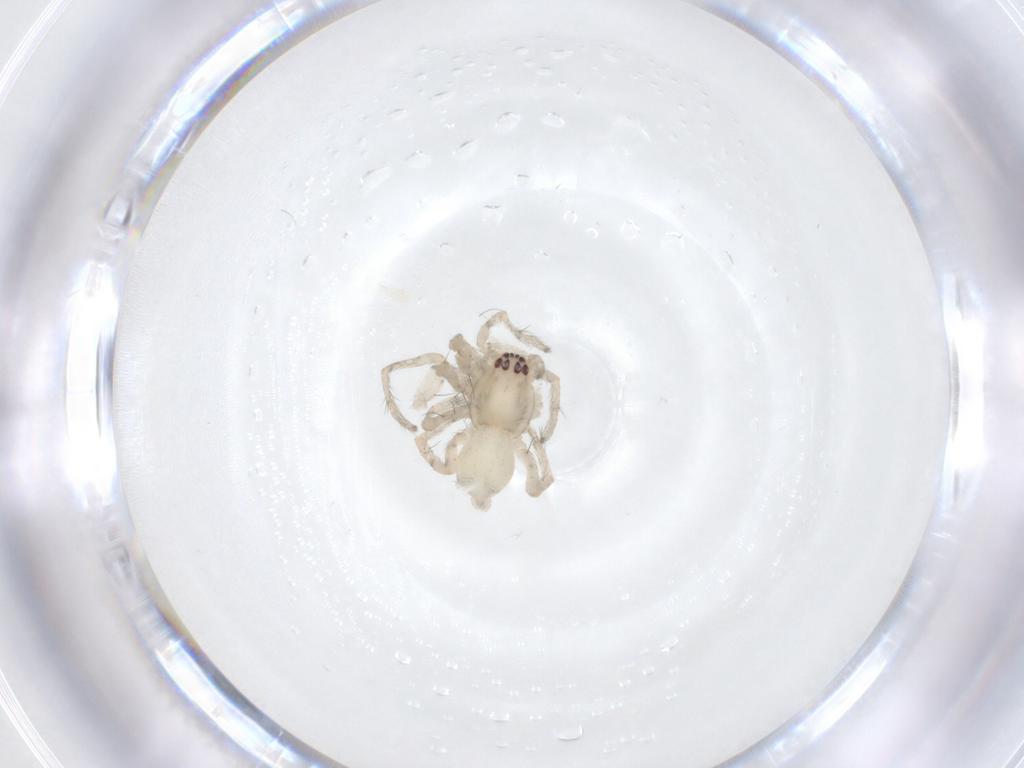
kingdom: Animalia
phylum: Arthropoda
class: Arachnida
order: Araneae
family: Anyphaenidae
